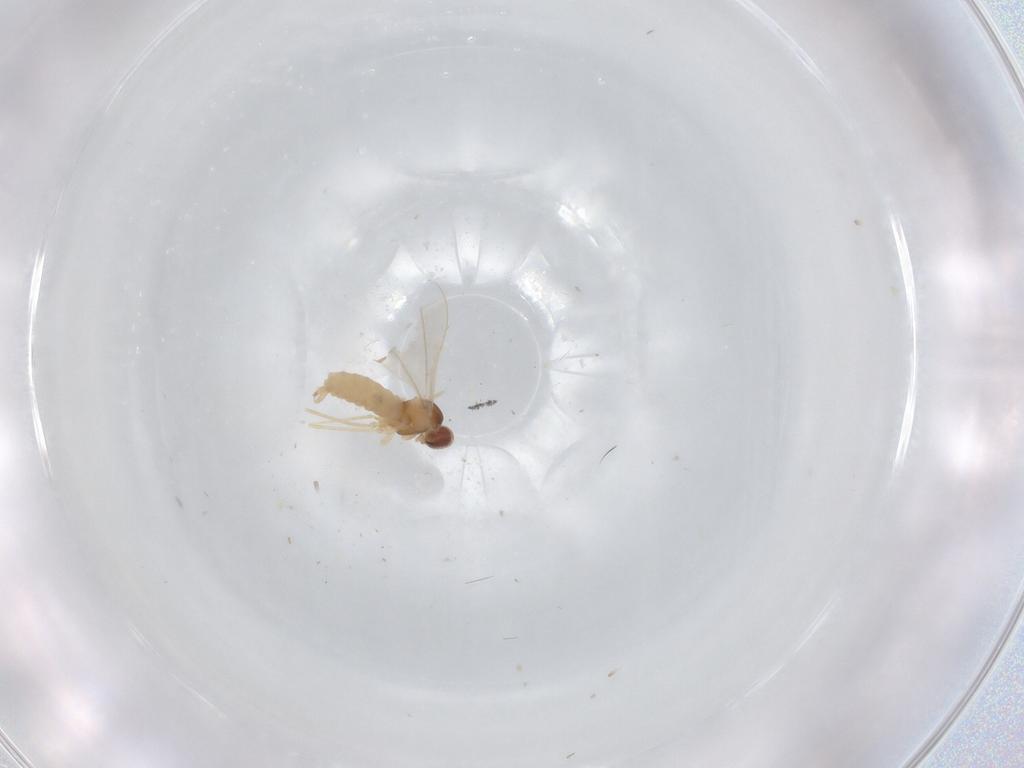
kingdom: Animalia
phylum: Arthropoda
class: Insecta
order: Diptera
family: Cecidomyiidae
